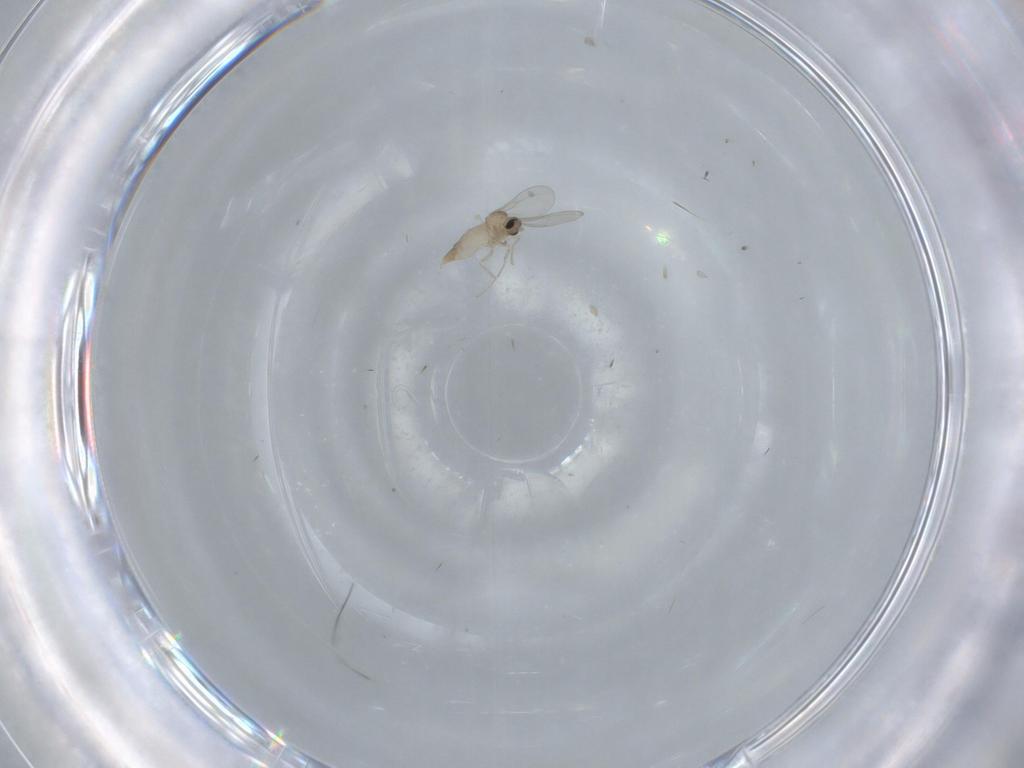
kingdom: Animalia
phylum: Arthropoda
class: Insecta
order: Diptera
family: Cecidomyiidae
